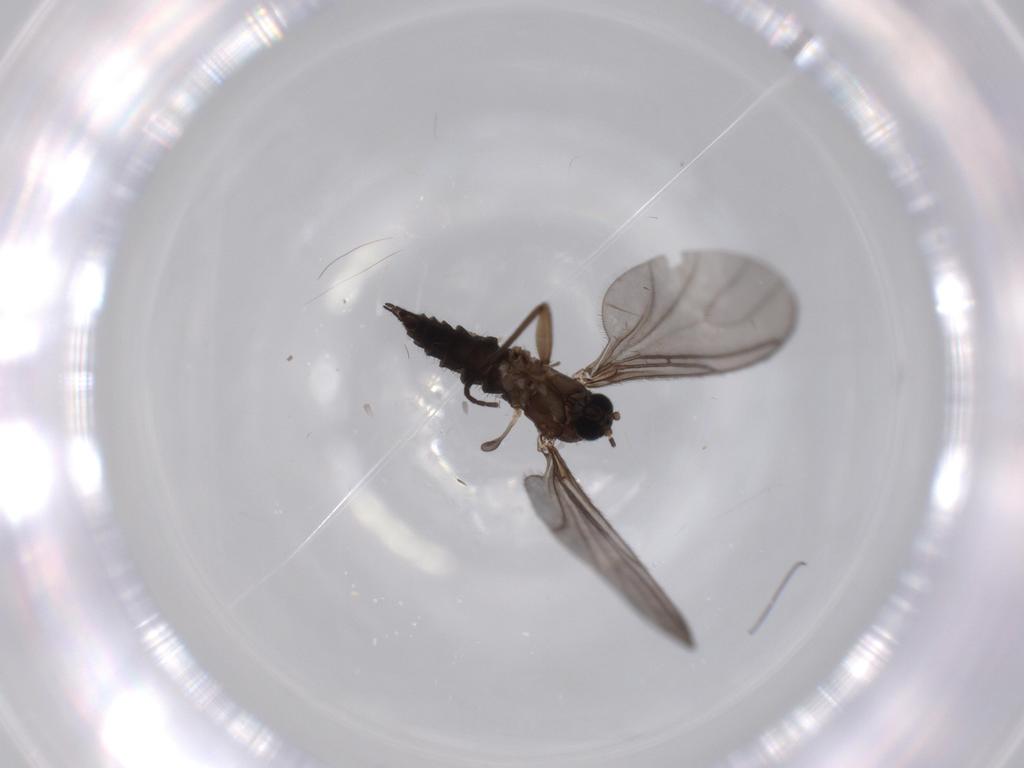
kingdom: Animalia
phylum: Arthropoda
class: Insecta
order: Diptera
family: Sciaridae
